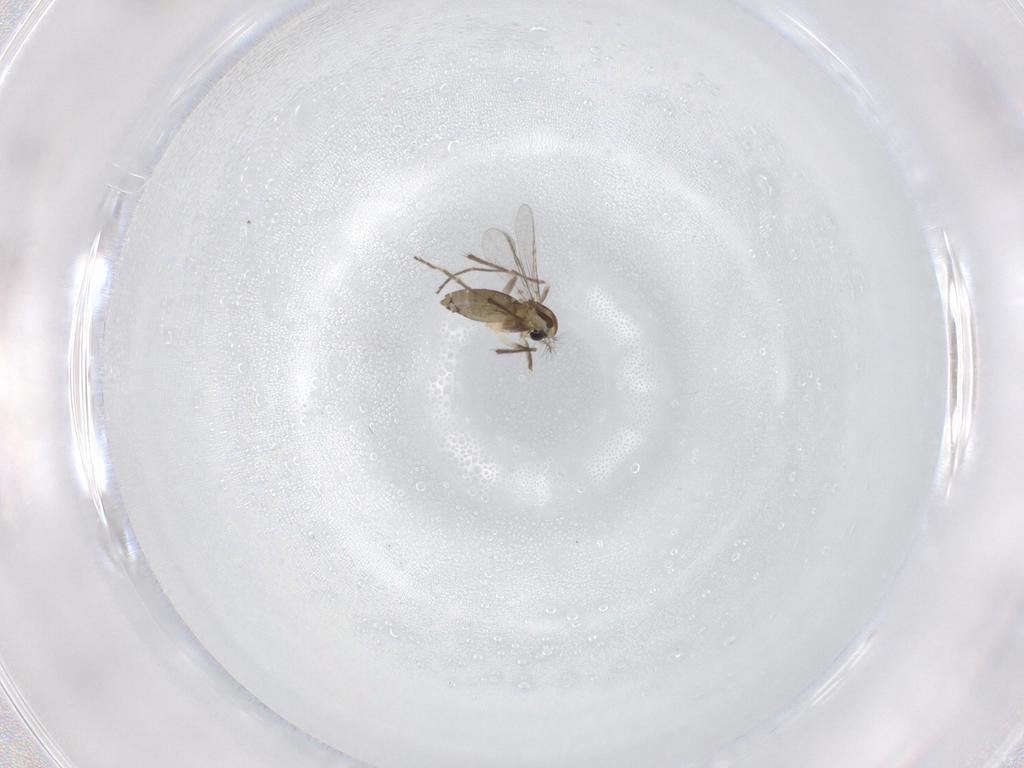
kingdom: Animalia
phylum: Arthropoda
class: Insecta
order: Diptera
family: Chironomidae
